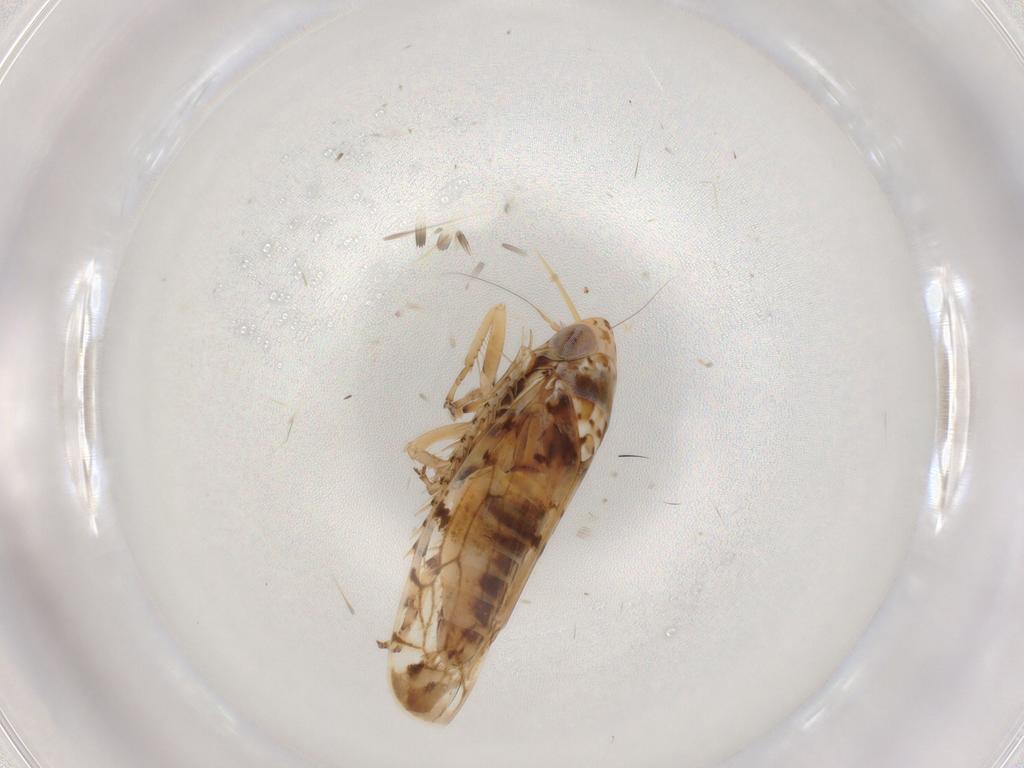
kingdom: Animalia
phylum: Arthropoda
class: Insecta
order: Hemiptera
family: Cicadellidae
